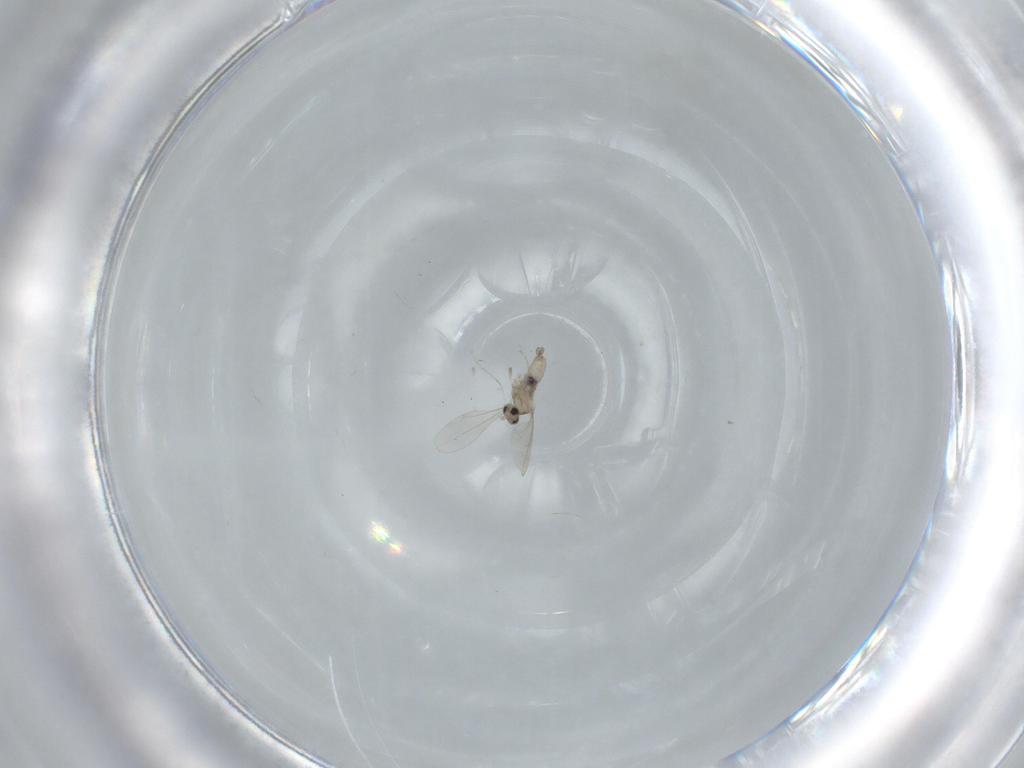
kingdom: Animalia
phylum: Arthropoda
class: Insecta
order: Diptera
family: Cecidomyiidae
